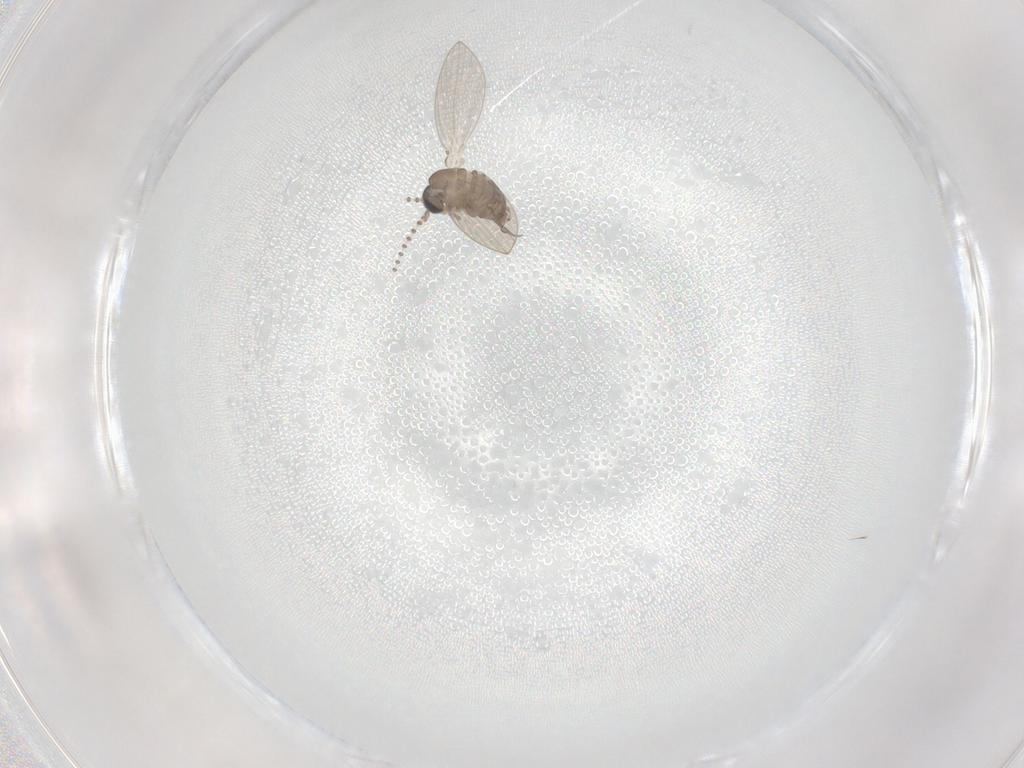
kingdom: Animalia
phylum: Arthropoda
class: Insecta
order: Diptera
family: Psychodidae
